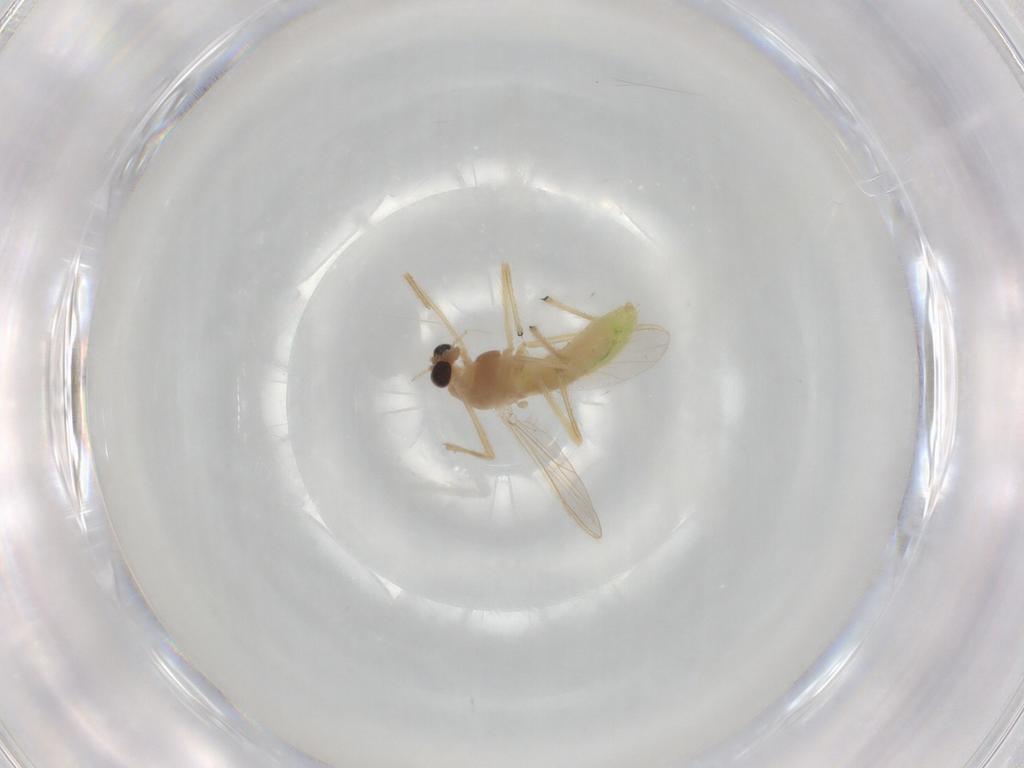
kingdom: Animalia
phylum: Arthropoda
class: Insecta
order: Diptera
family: Chironomidae
